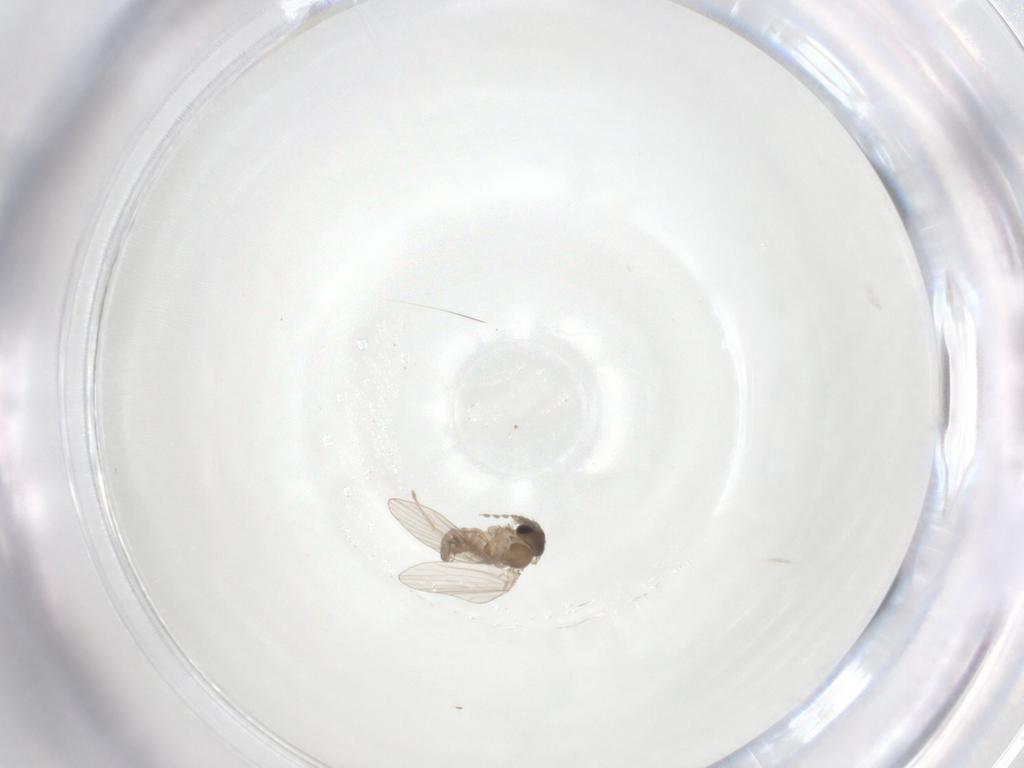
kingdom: Animalia
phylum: Arthropoda
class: Insecta
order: Diptera
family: Psychodidae
